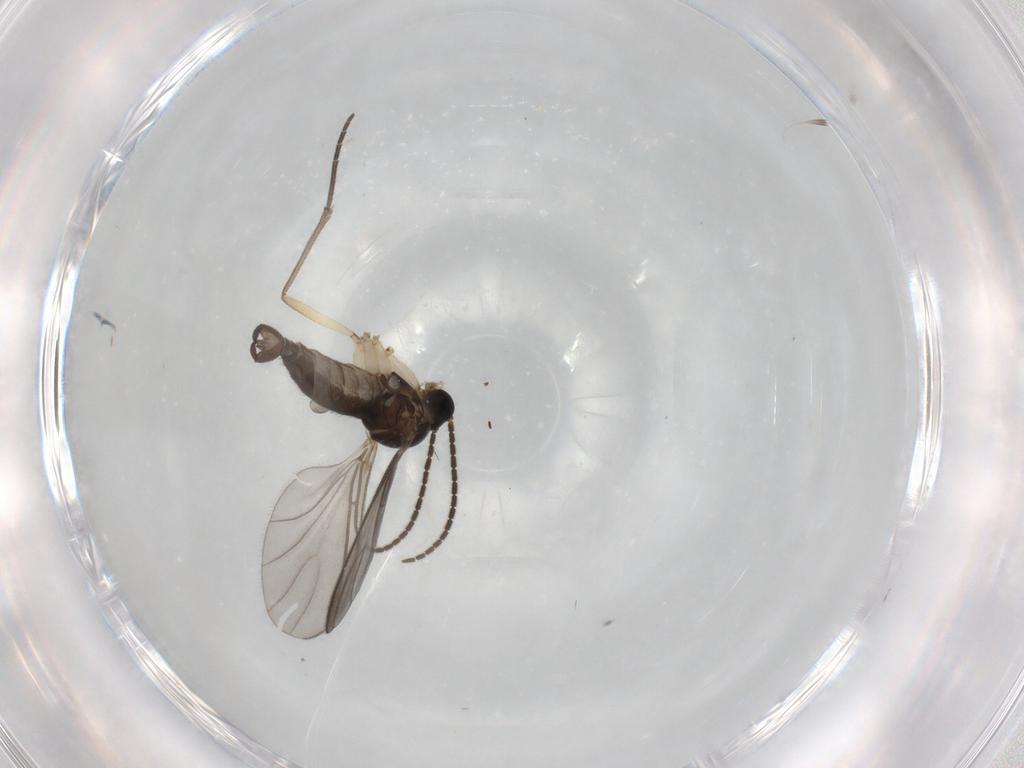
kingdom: Animalia
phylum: Arthropoda
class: Insecta
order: Diptera
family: Ceratopogonidae
